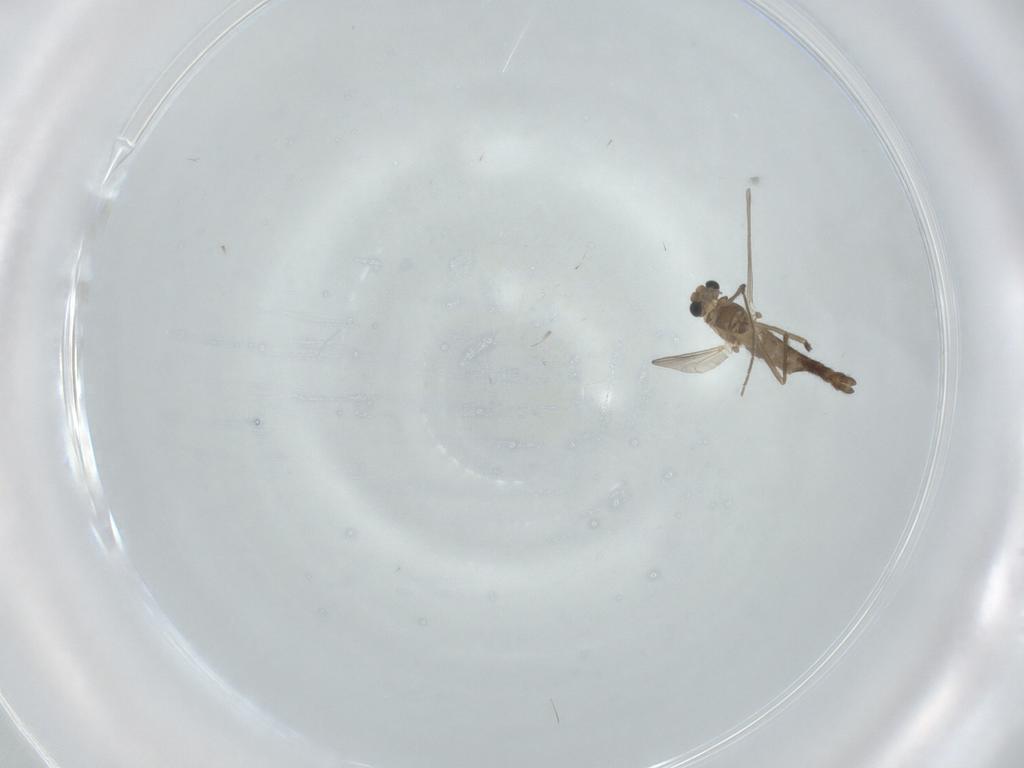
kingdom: Animalia
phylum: Arthropoda
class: Insecta
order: Diptera
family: Chironomidae
